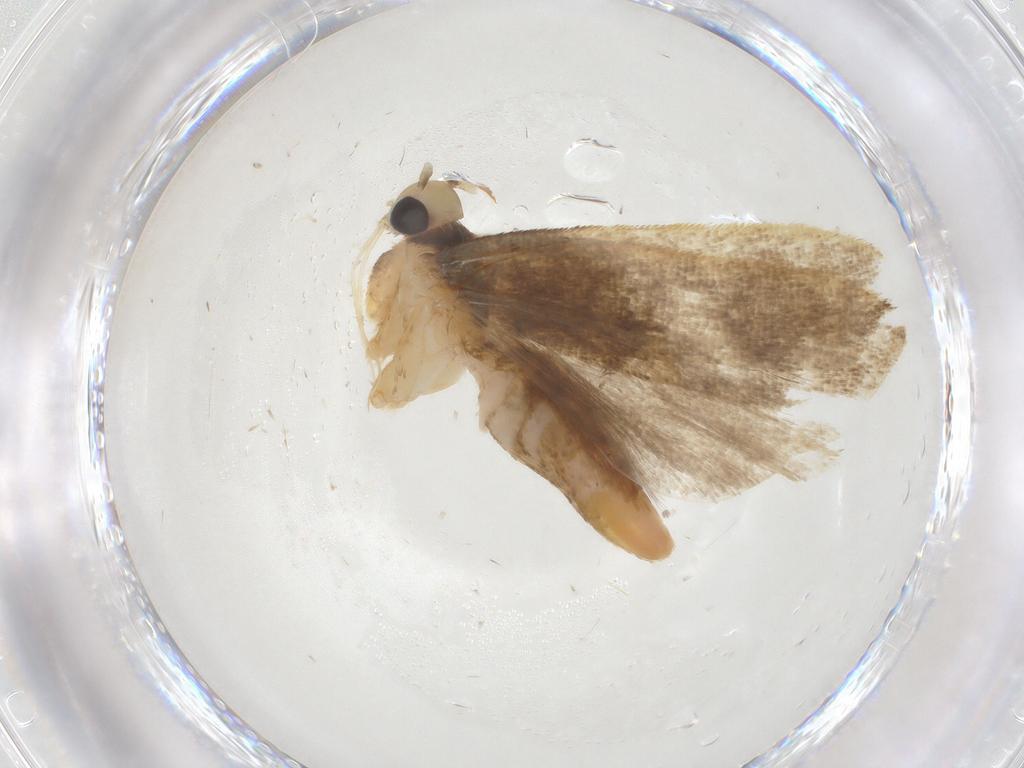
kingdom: Animalia
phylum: Arthropoda
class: Insecta
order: Lepidoptera
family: Gelechiidae
